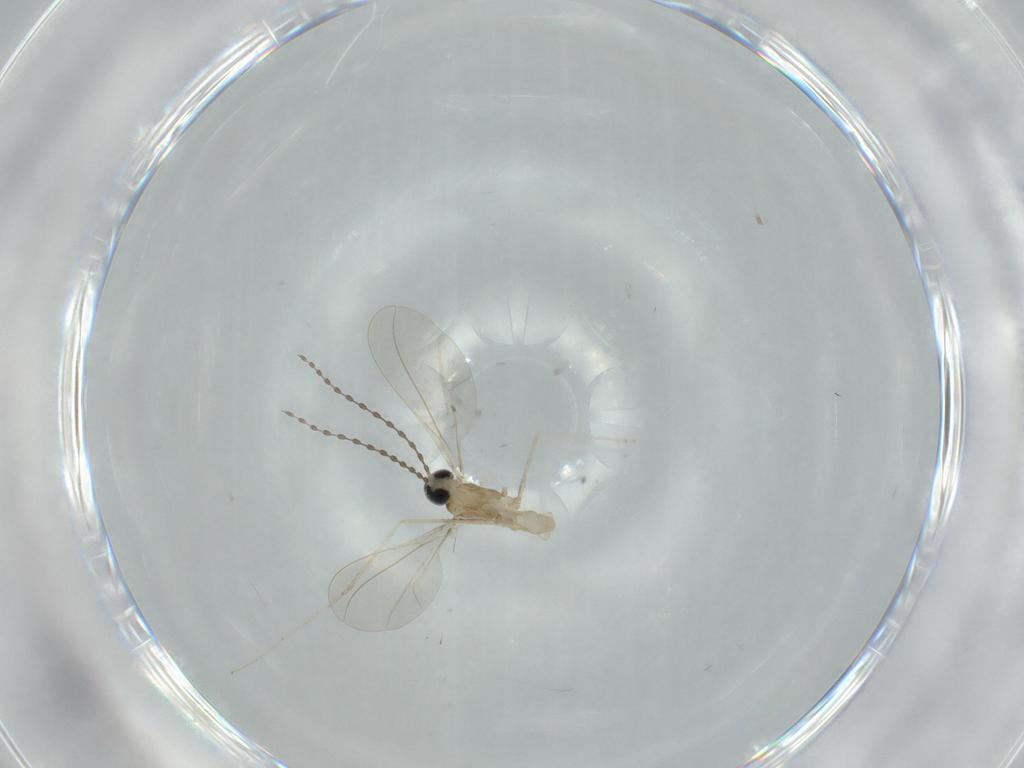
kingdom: Animalia
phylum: Arthropoda
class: Insecta
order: Diptera
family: Cecidomyiidae
